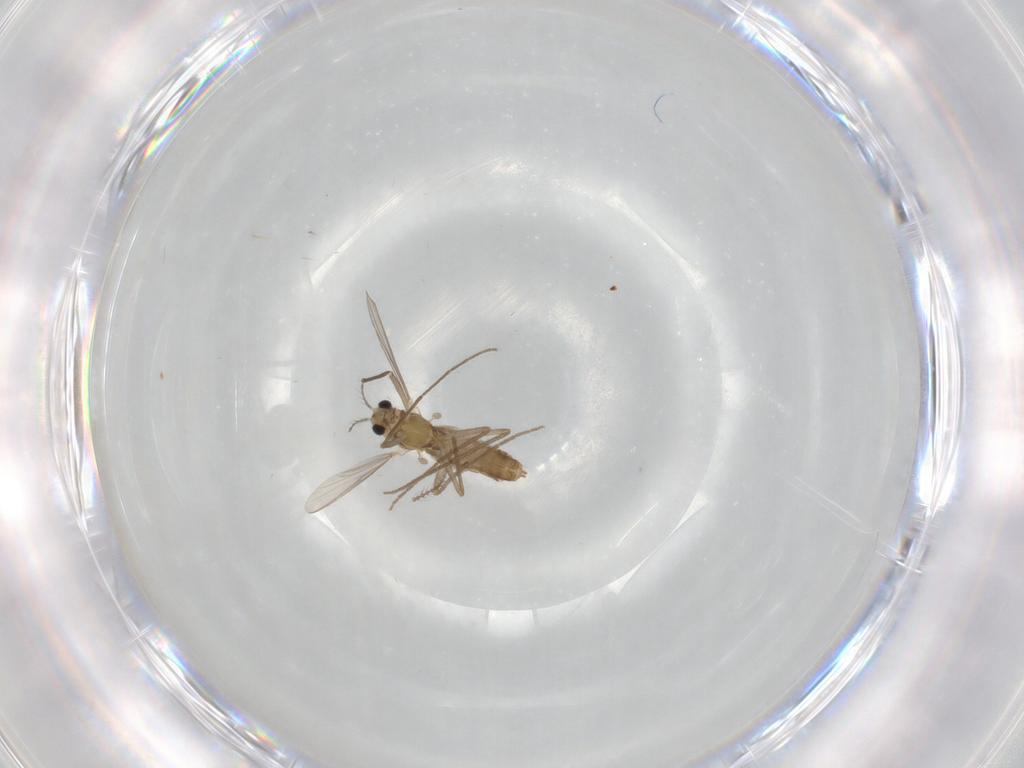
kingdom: Animalia
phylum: Arthropoda
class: Insecta
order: Diptera
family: Chironomidae
